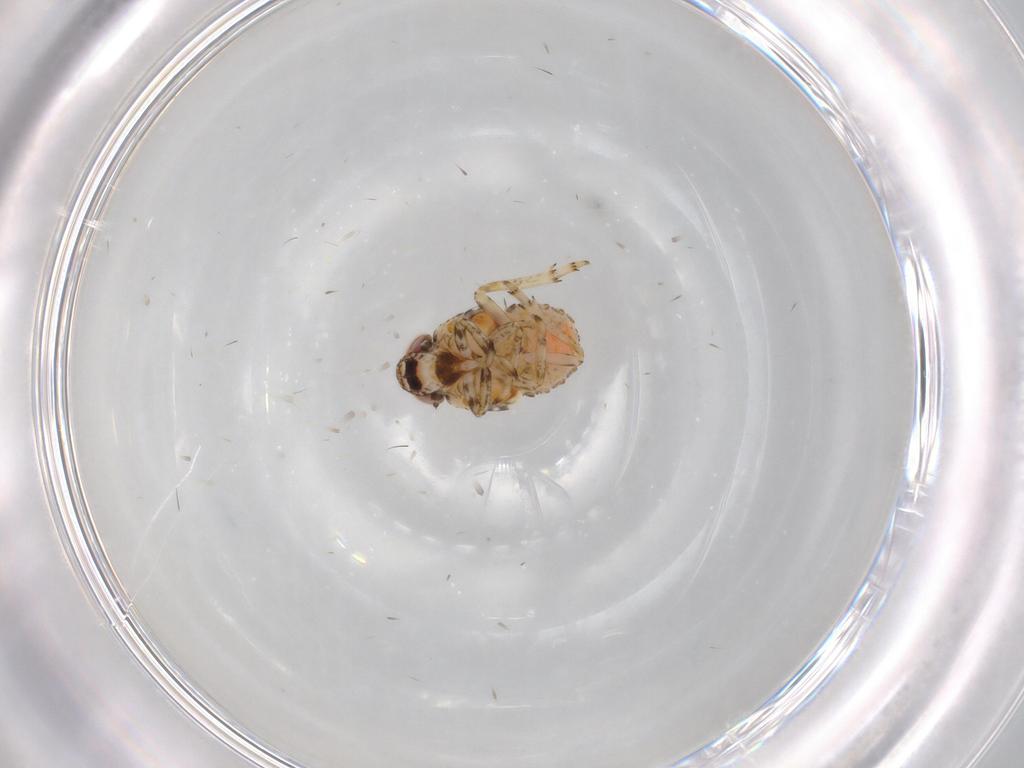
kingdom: Animalia
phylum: Arthropoda
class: Insecta
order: Hemiptera
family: Issidae
